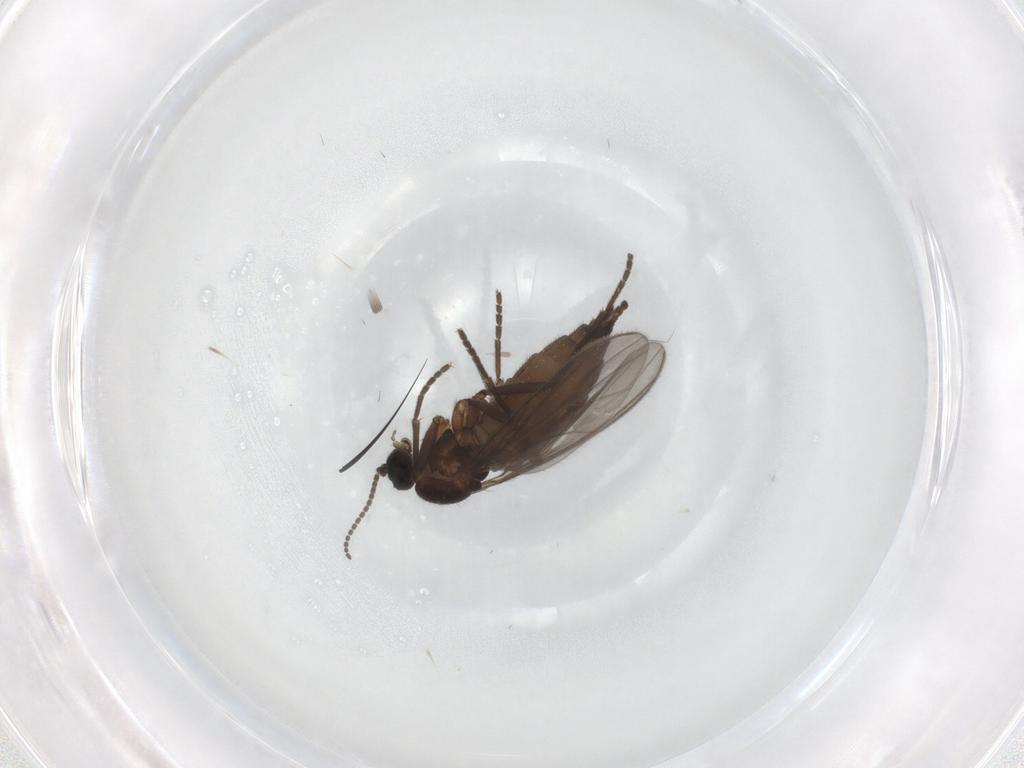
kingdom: Animalia
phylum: Arthropoda
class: Insecta
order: Diptera
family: Sciaridae
